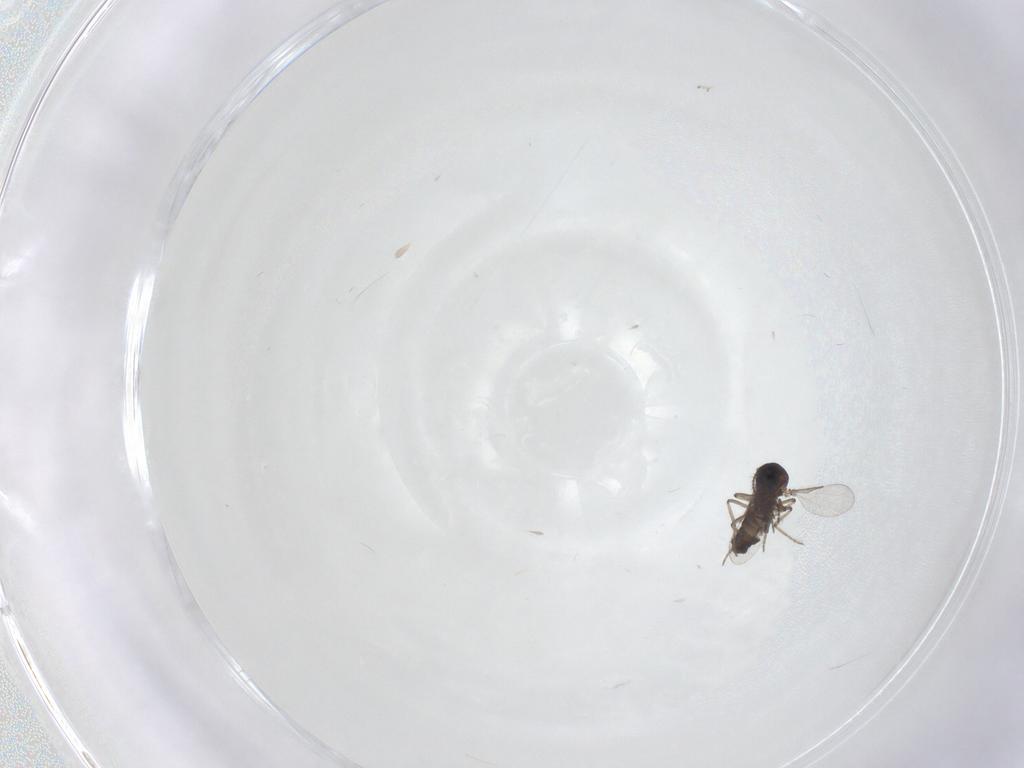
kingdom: Animalia
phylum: Arthropoda
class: Insecta
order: Diptera
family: Ceratopogonidae
